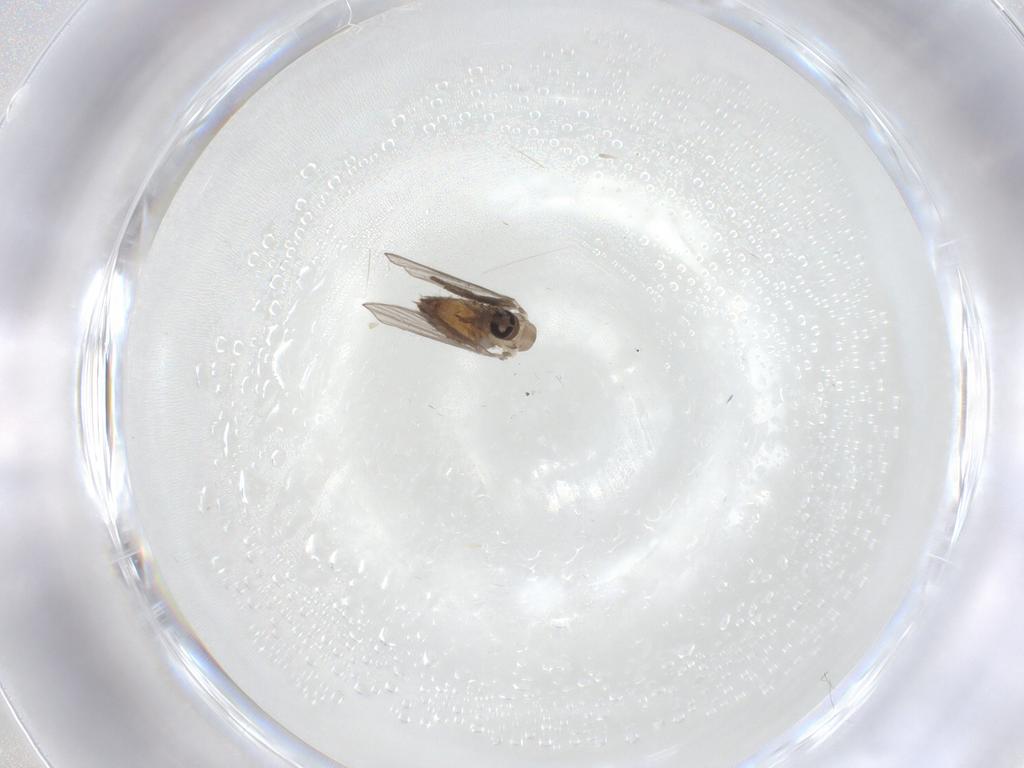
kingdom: Animalia
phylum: Arthropoda
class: Insecta
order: Diptera
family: Psychodidae
